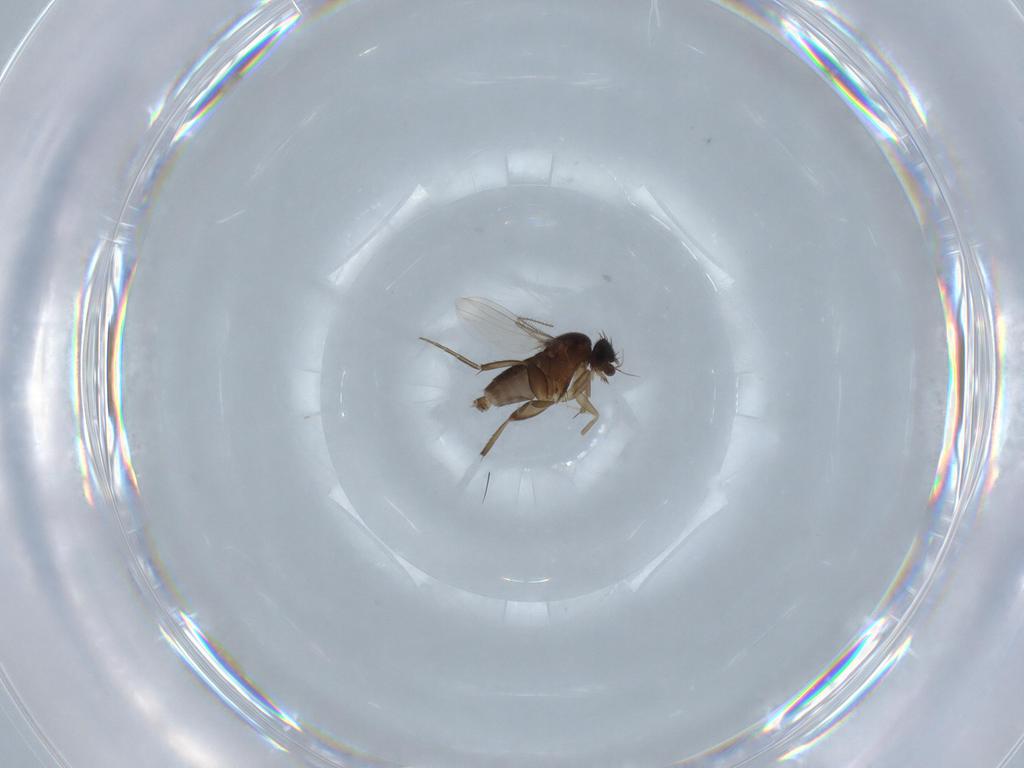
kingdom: Animalia
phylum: Arthropoda
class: Insecta
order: Diptera
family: Phoridae
